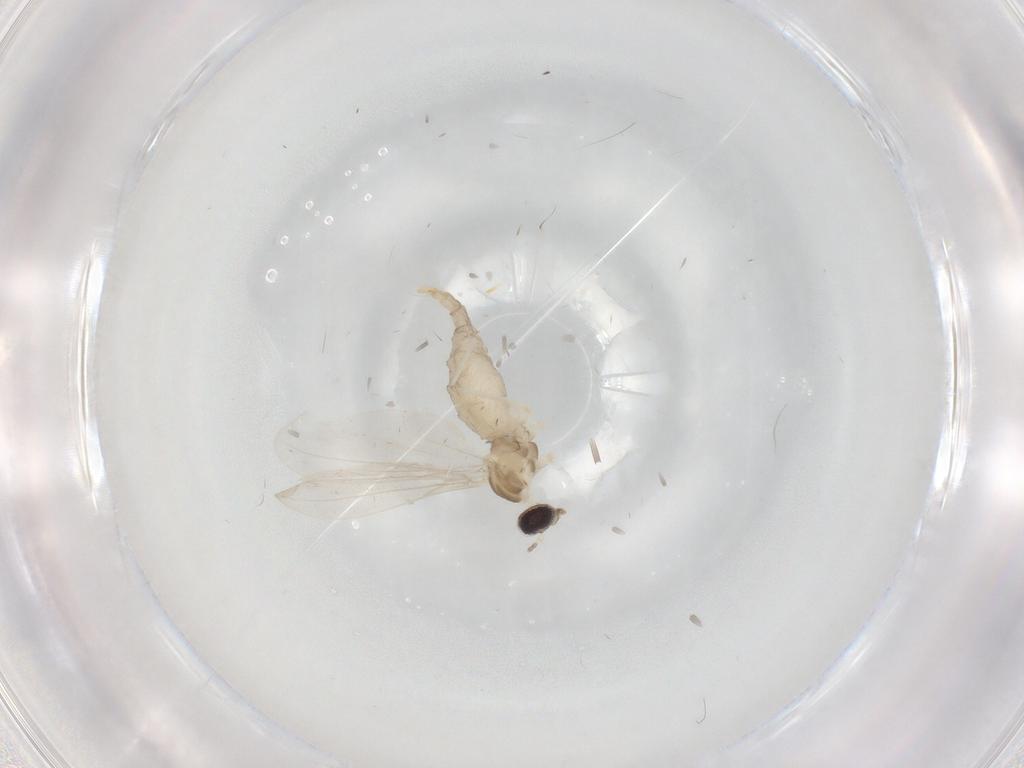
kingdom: Animalia
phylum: Arthropoda
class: Insecta
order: Diptera
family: Cecidomyiidae
